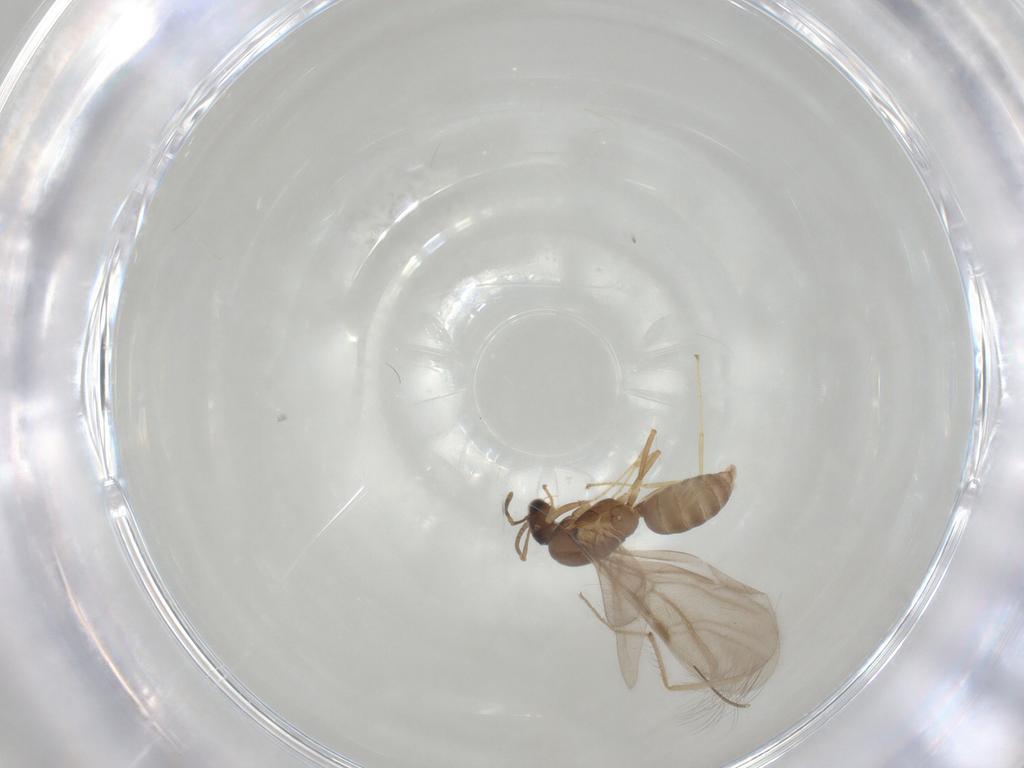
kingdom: Animalia
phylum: Arthropoda
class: Insecta
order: Hymenoptera
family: Formicidae
